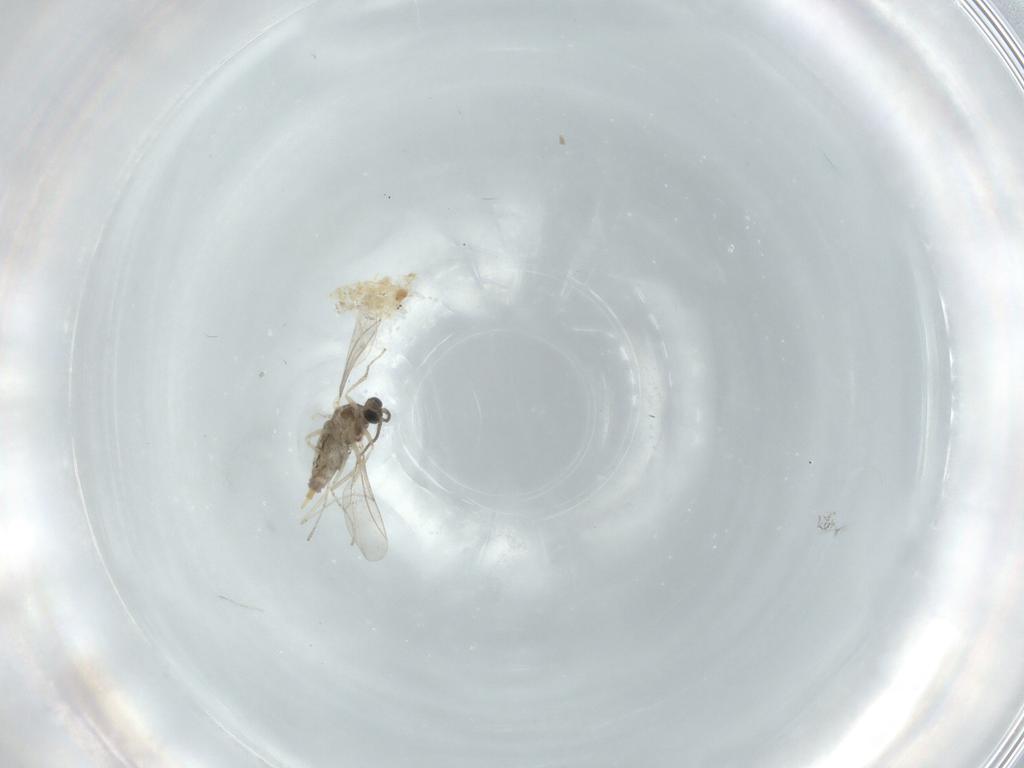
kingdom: Animalia
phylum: Arthropoda
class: Insecta
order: Diptera
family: Cecidomyiidae
